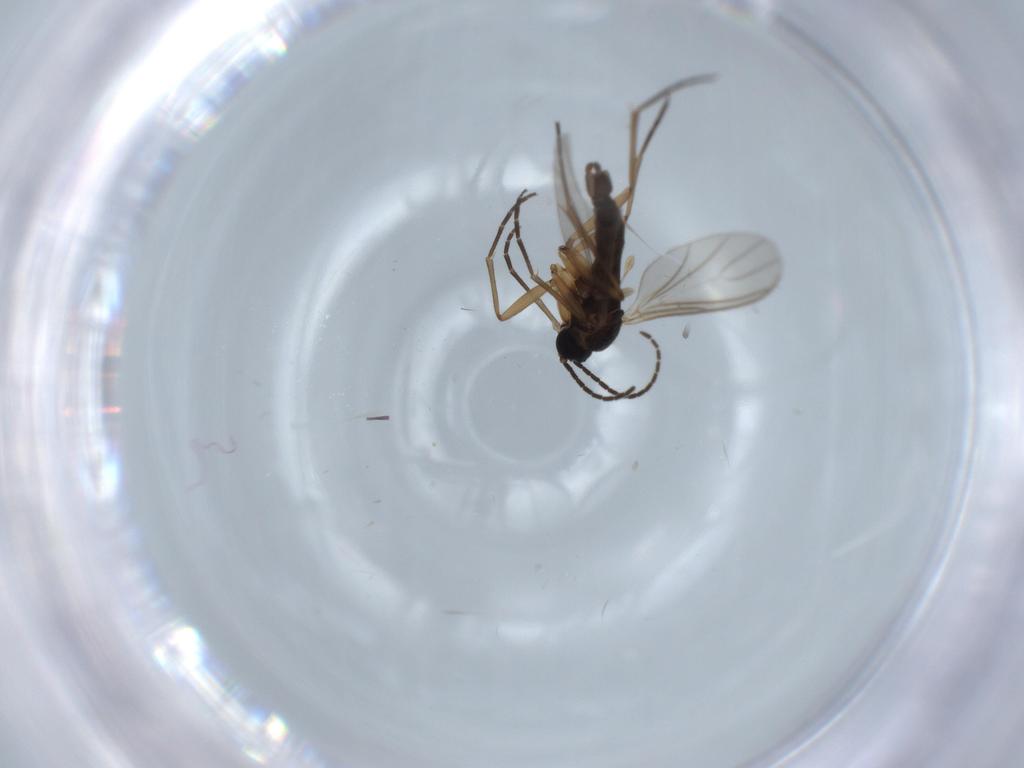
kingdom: Animalia
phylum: Arthropoda
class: Insecta
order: Diptera
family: Sciaridae
